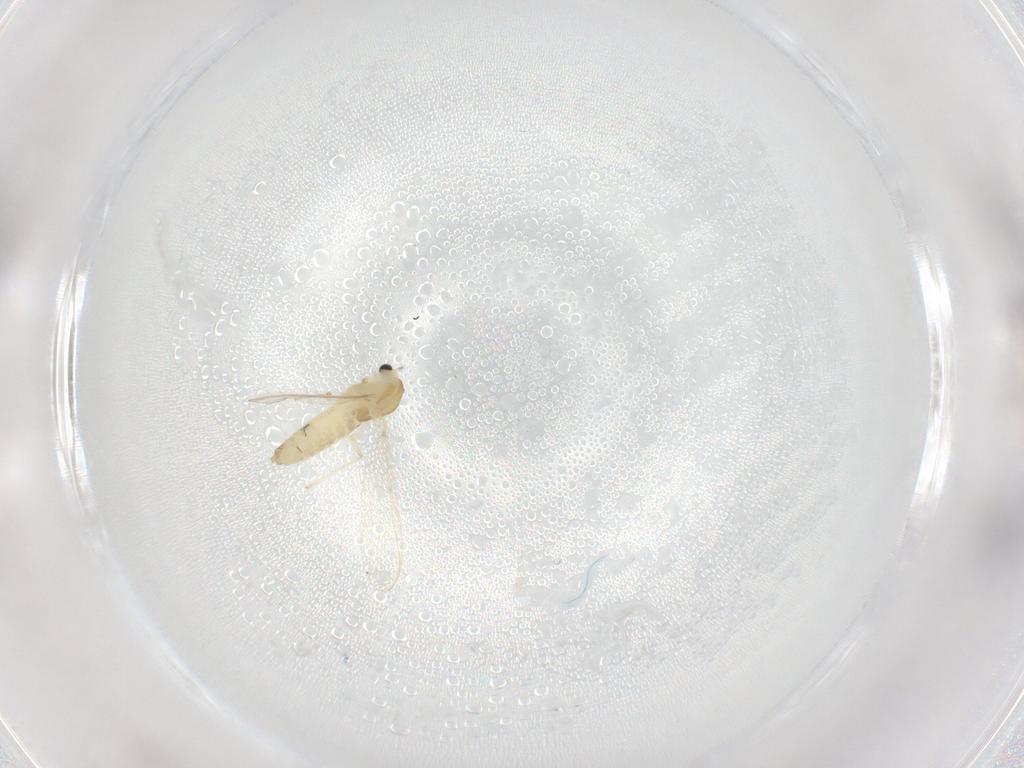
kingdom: Animalia
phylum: Arthropoda
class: Insecta
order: Diptera
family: Chironomidae
